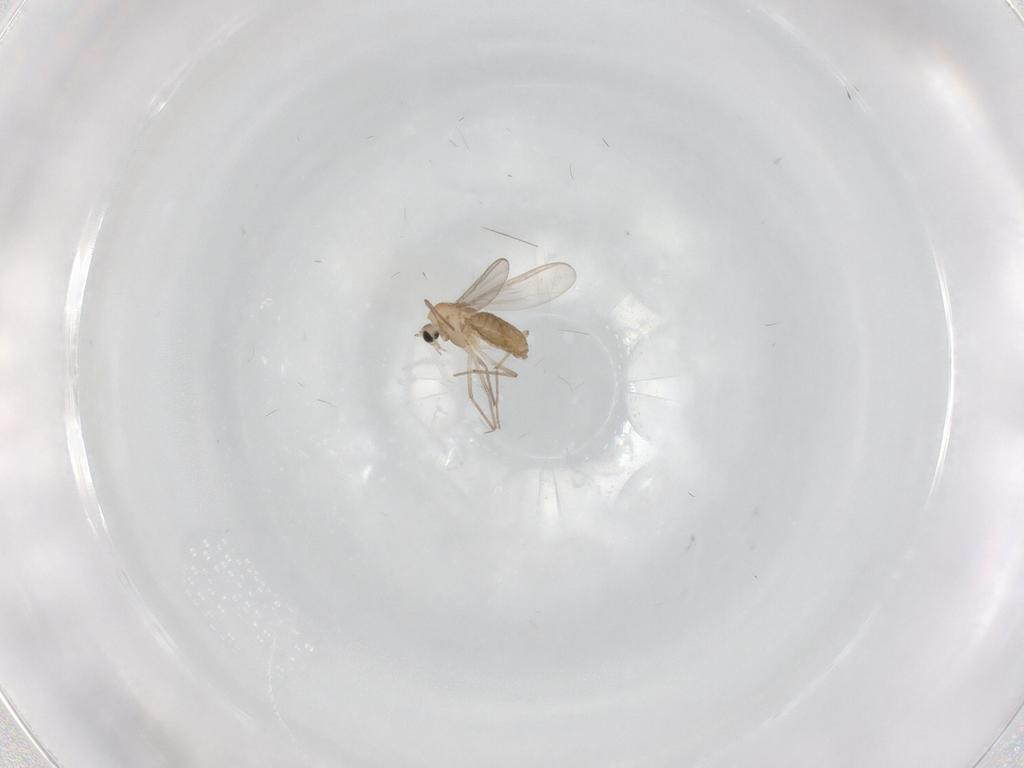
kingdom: Animalia
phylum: Arthropoda
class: Insecta
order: Diptera
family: Chironomidae
